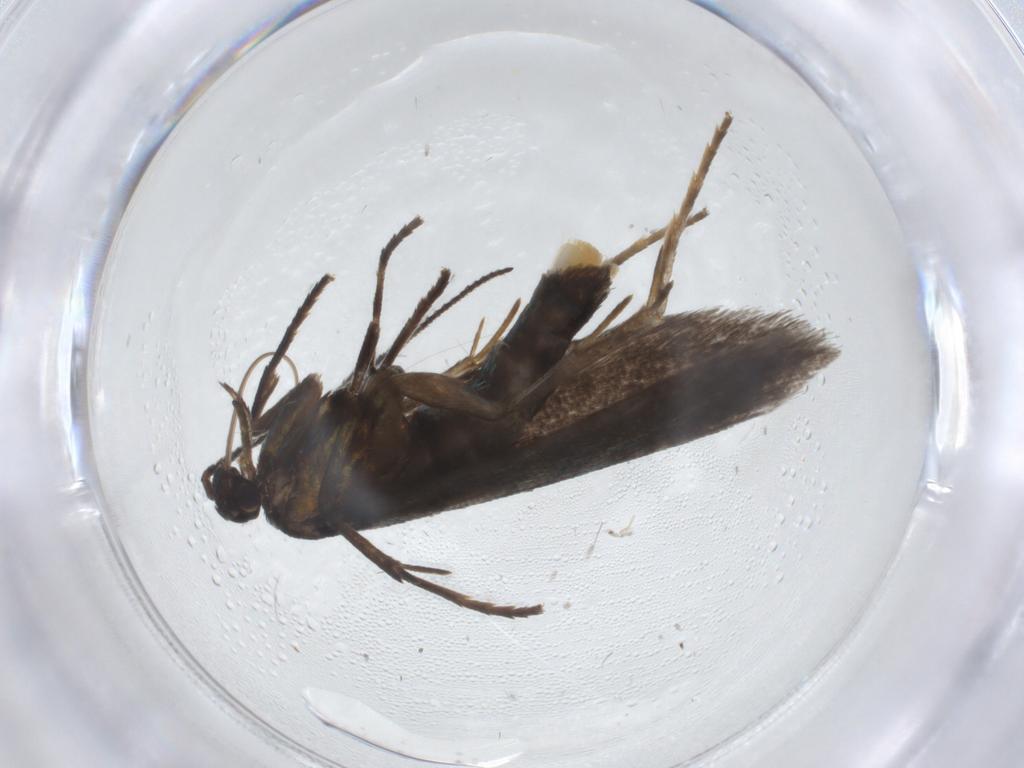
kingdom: Animalia
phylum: Arthropoda
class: Insecta
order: Lepidoptera
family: Argyresthiidae
